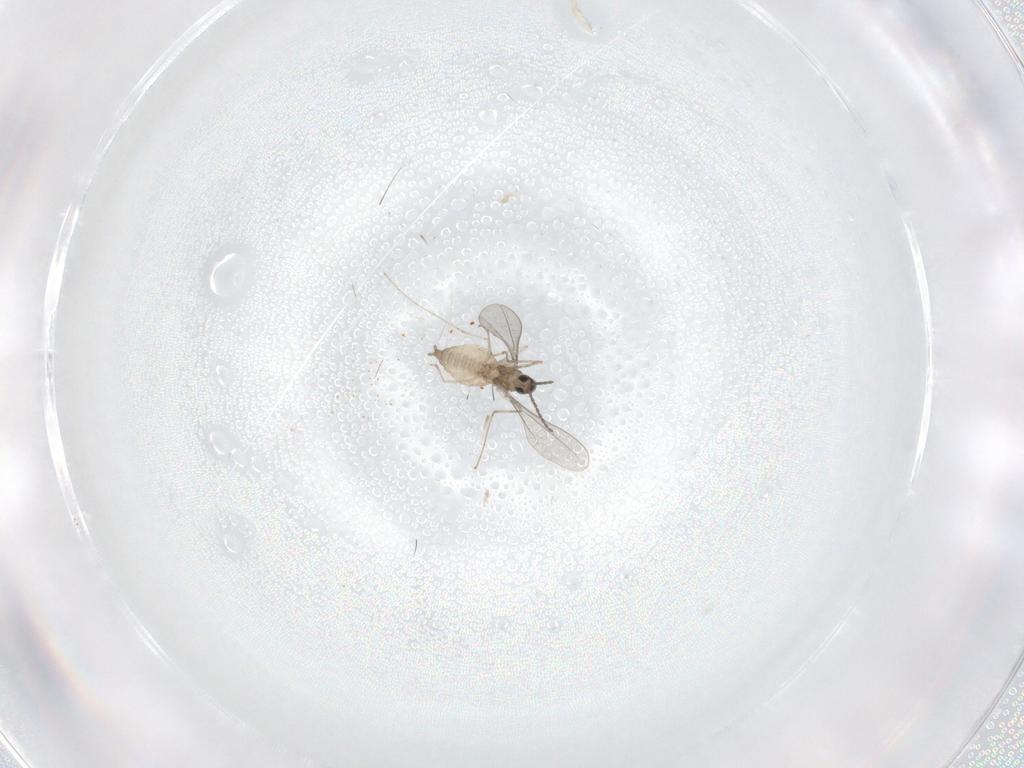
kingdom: Animalia
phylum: Arthropoda
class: Insecta
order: Diptera
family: Cecidomyiidae
